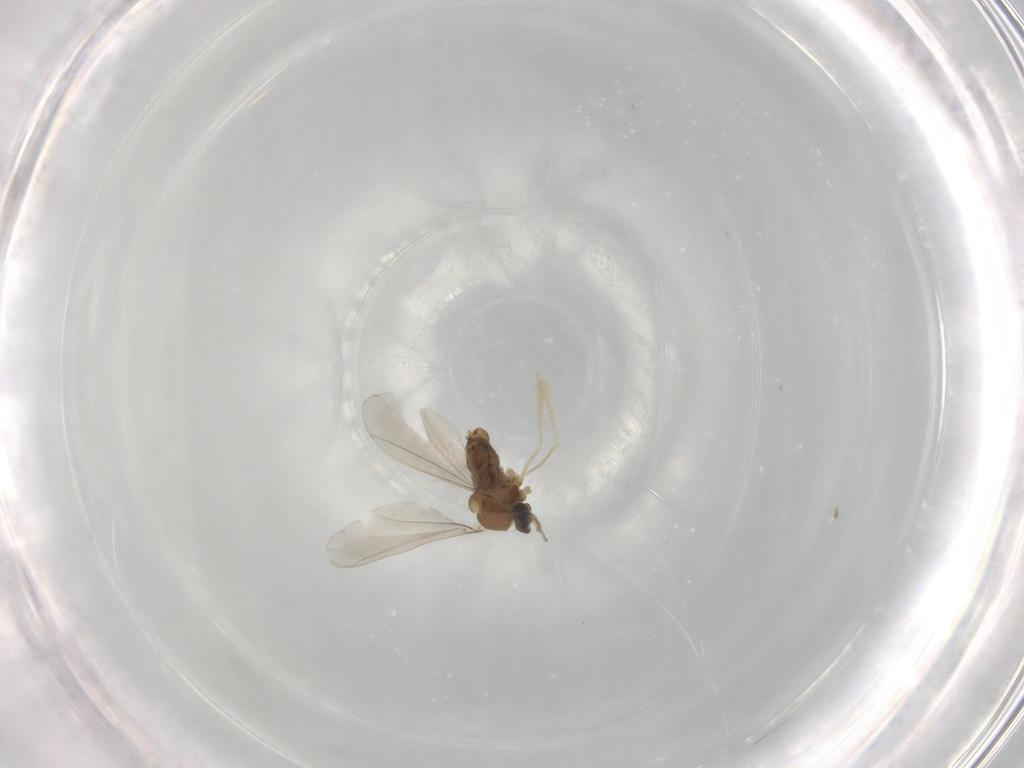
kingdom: Animalia
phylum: Arthropoda
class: Insecta
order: Diptera
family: Cecidomyiidae
